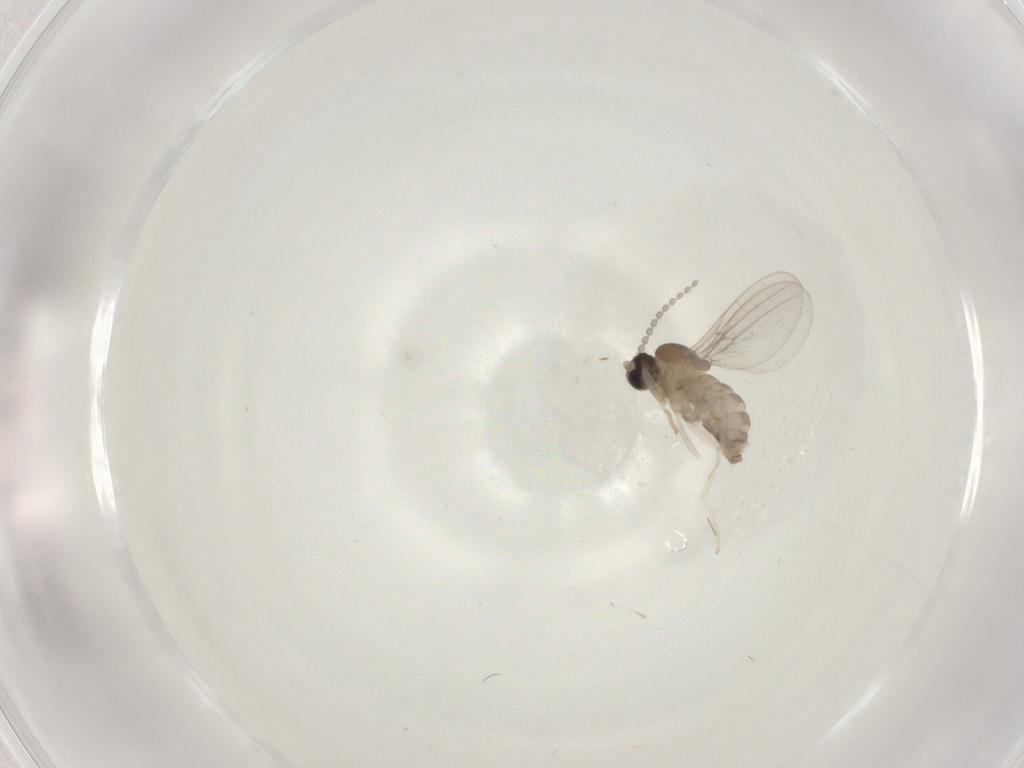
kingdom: Animalia
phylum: Arthropoda
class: Insecta
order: Diptera
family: Cecidomyiidae
